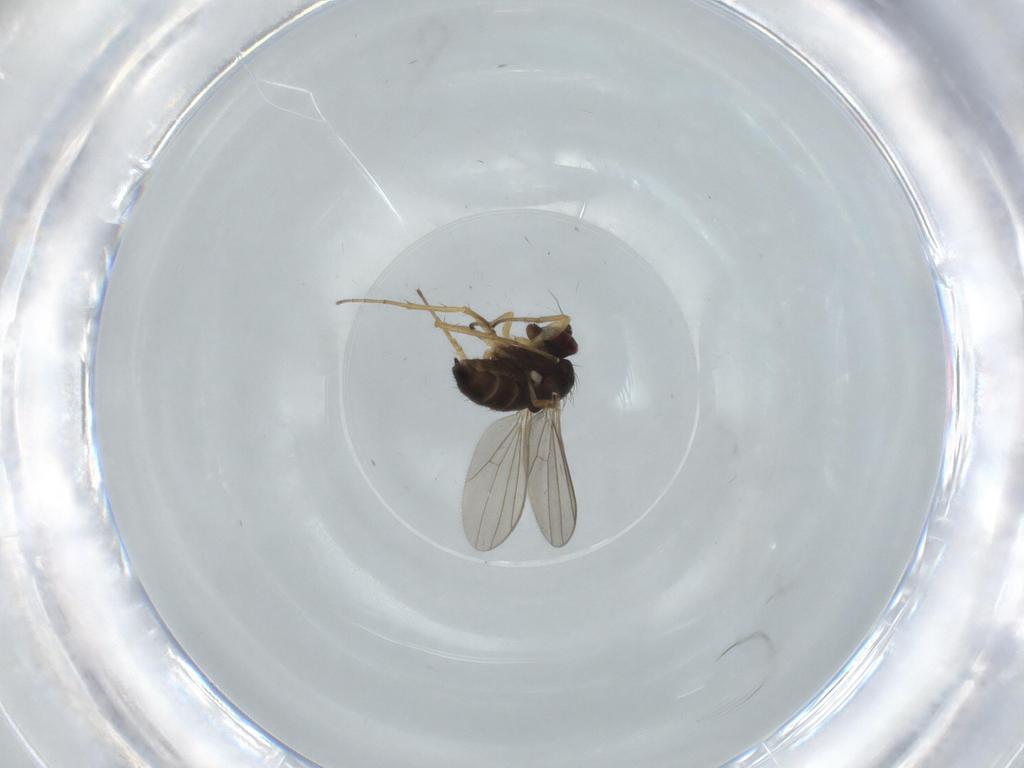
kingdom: Animalia
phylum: Arthropoda
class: Insecta
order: Diptera
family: Dolichopodidae
